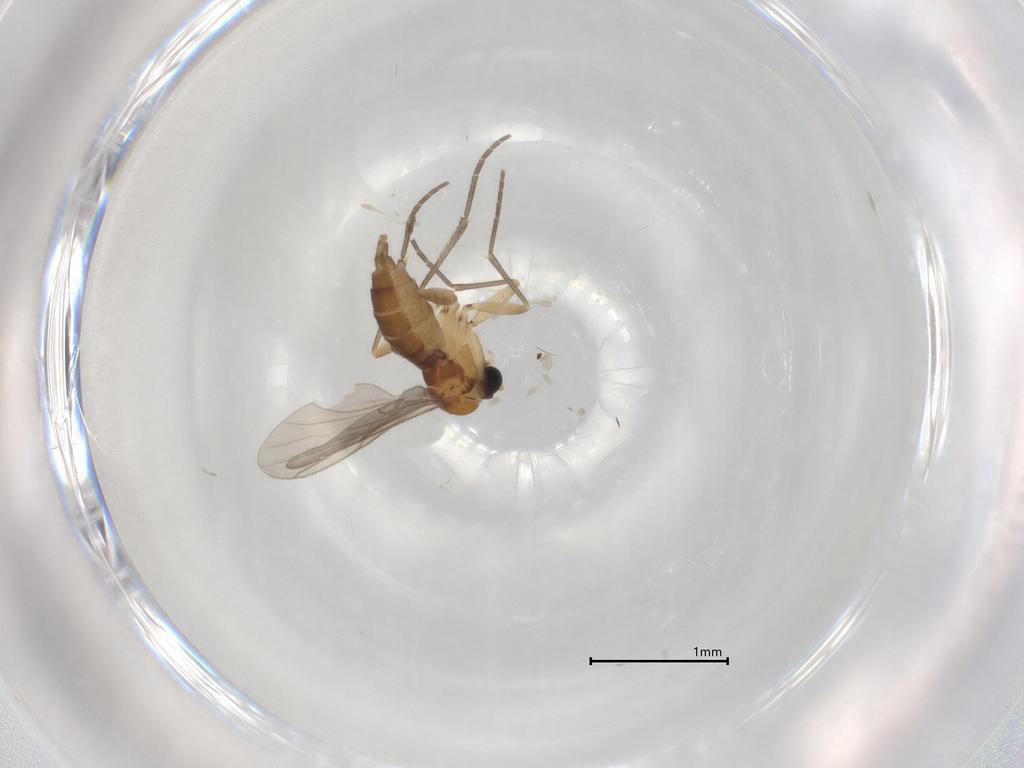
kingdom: Animalia
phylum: Arthropoda
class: Insecta
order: Diptera
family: Sciaridae
